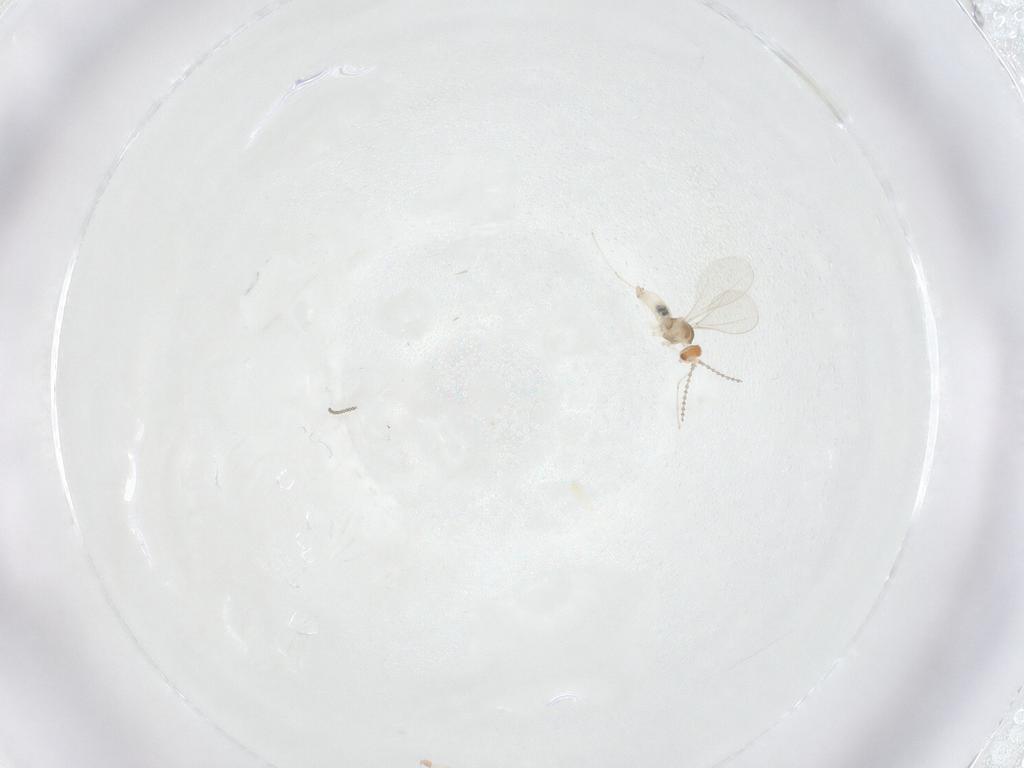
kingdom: Animalia
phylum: Arthropoda
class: Insecta
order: Diptera
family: Cecidomyiidae
